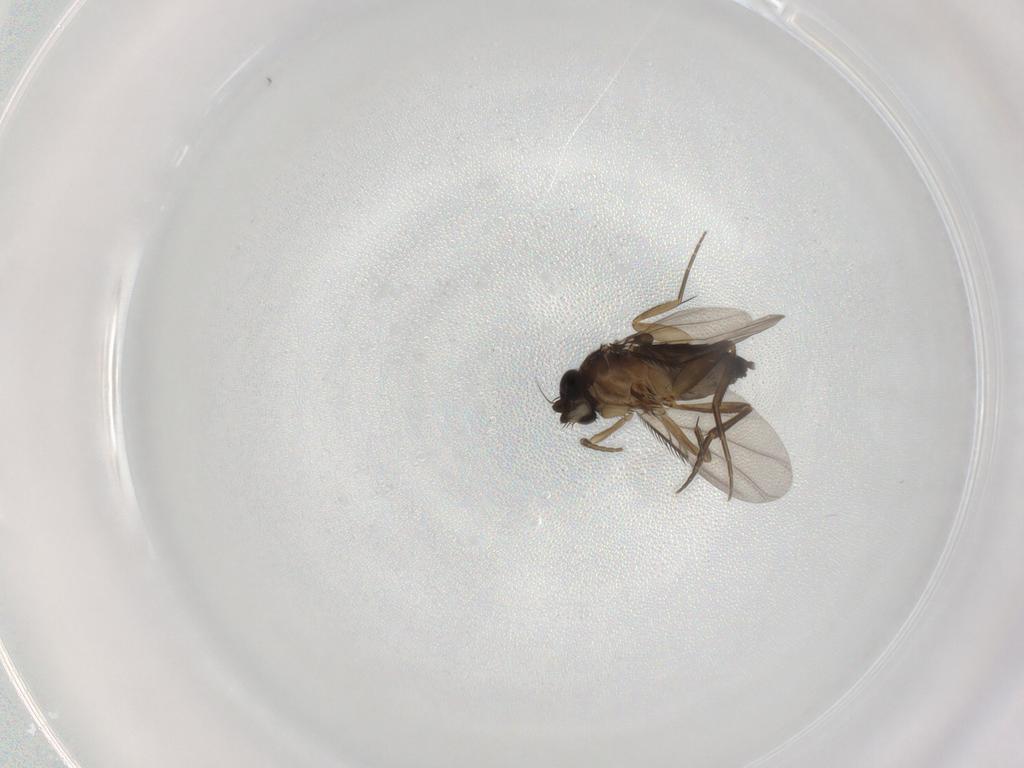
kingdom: Animalia
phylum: Arthropoda
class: Insecta
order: Diptera
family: Phoridae
